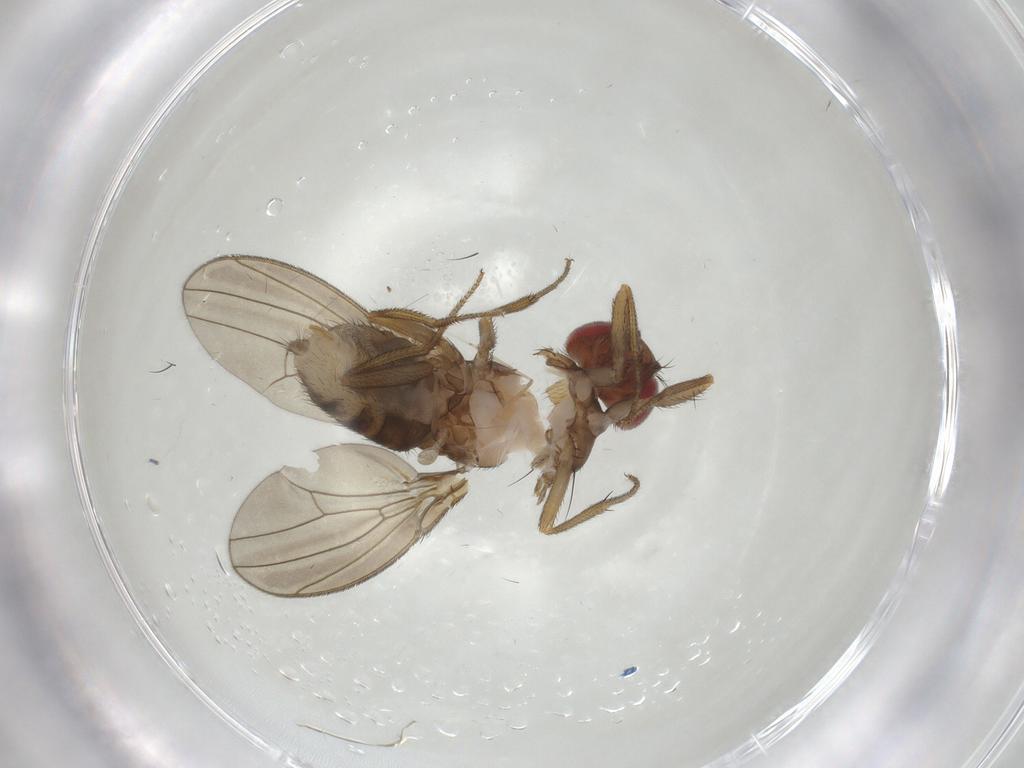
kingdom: Animalia
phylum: Arthropoda
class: Insecta
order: Diptera
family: Drosophilidae
